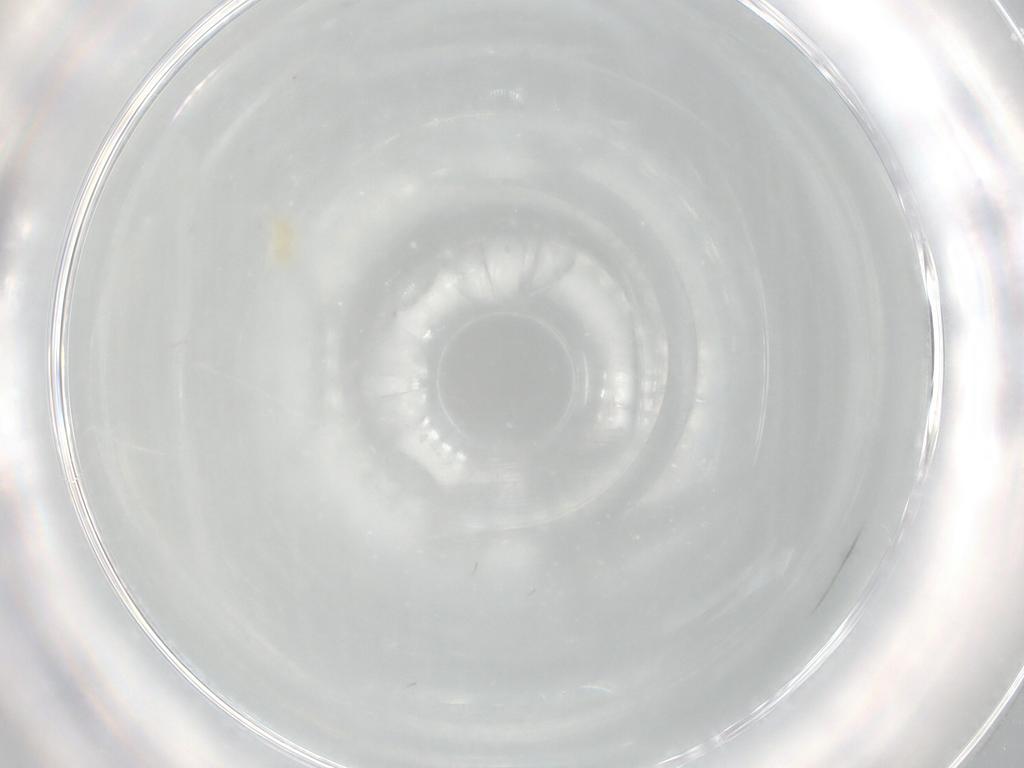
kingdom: Animalia
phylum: Arthropoda
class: Arachnida
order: Trombidiformes
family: Eupodidae
